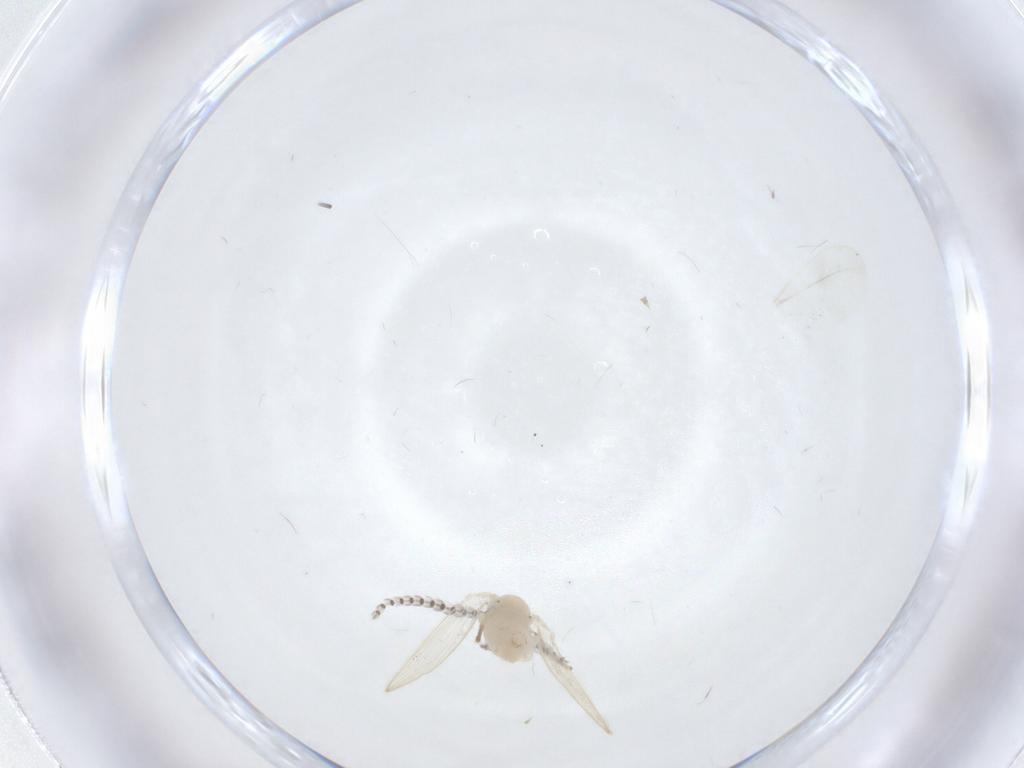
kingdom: Animalia
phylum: Arthropoda
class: Insecta
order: Diptera
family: Psychodidae
